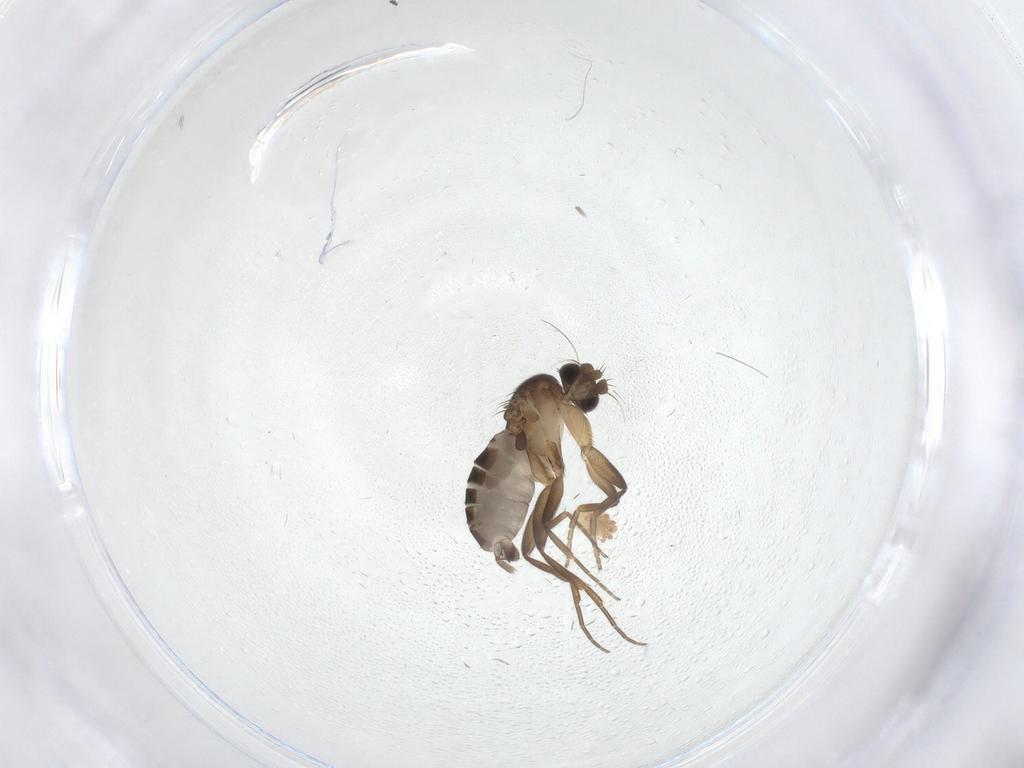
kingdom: Animalia
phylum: Arthropoda
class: Insecta
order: Diptera
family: Phoridae
